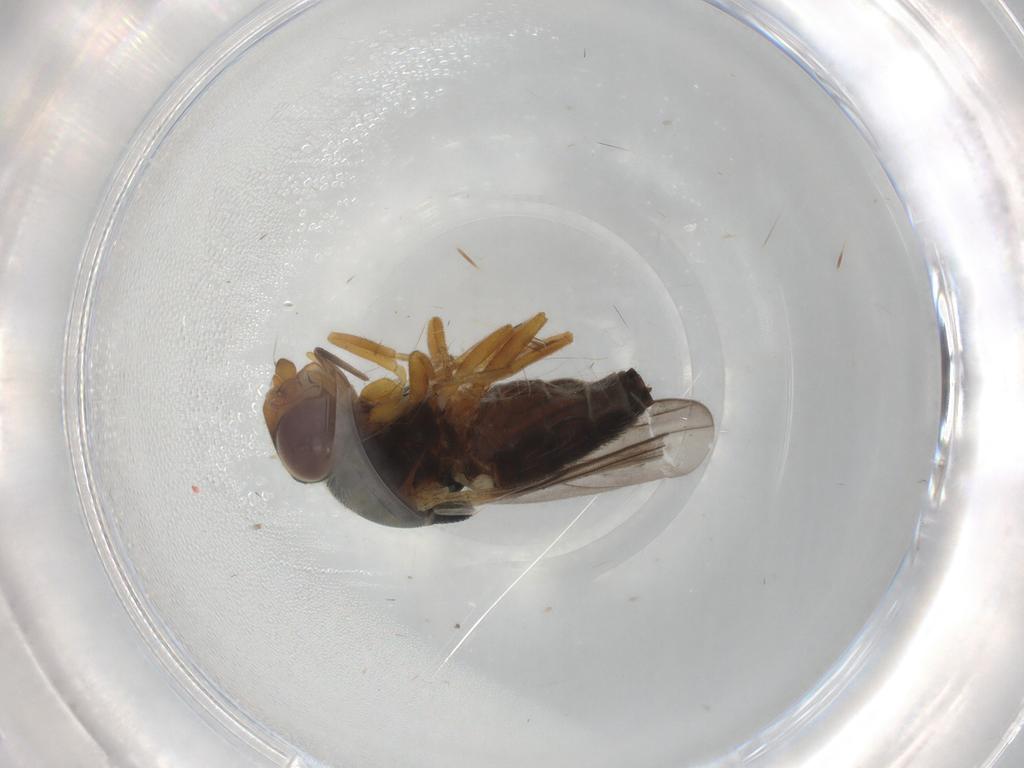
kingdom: Animalia
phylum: Arthropoda
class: Insecta
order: Diptera
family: Chloropidae
